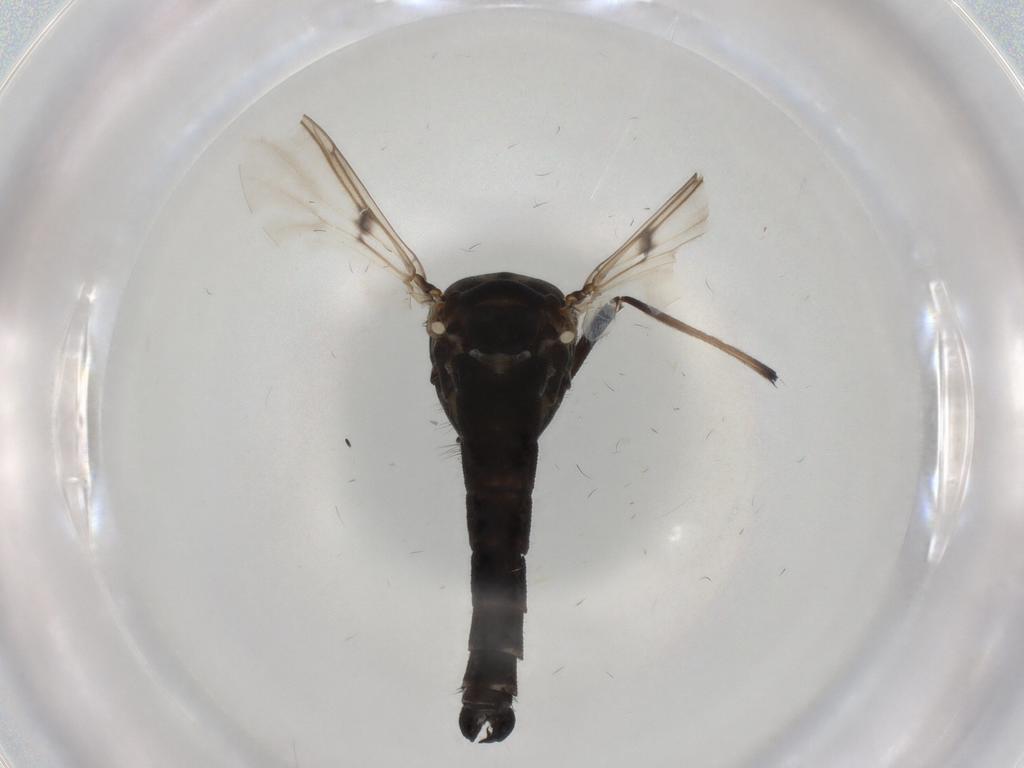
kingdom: Animalia
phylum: Arthropoda
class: Insecta
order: Diptera
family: Chironomidae
